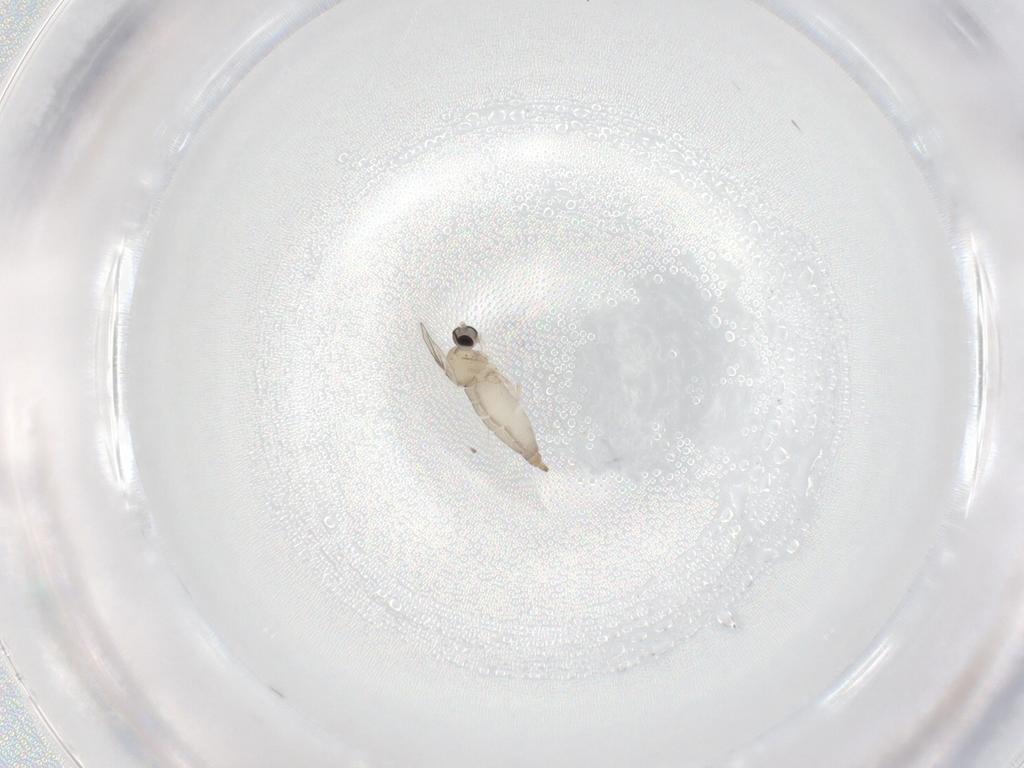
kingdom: Animalia
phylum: Arthropoda
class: Insecta
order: Diptera
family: Cecidomyiidae
